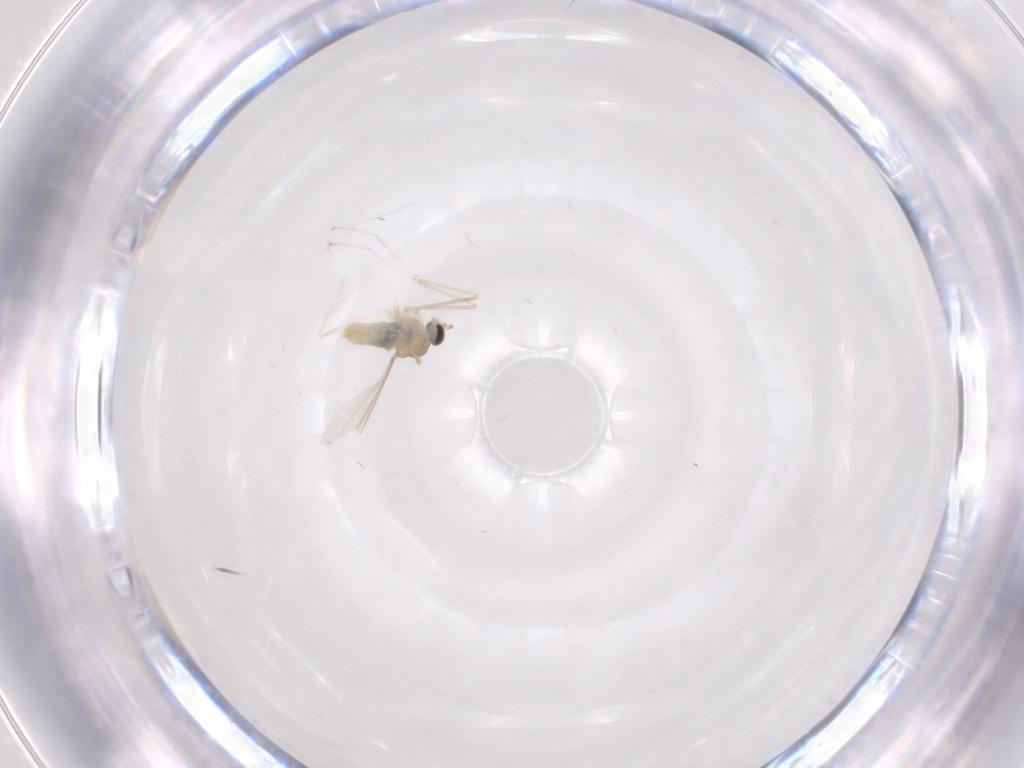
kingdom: Animalia
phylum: Arthropoda
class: Insecta
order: Diptera
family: Cecidomyiidae
